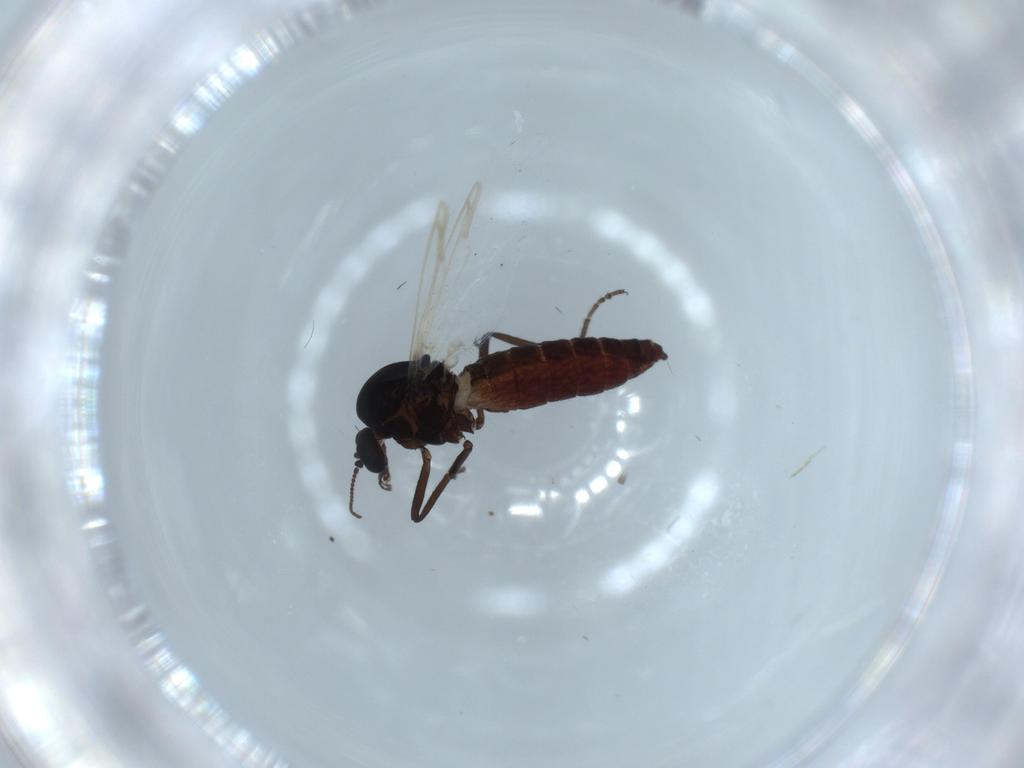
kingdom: Animalia
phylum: Arthropoda
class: Insecta
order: Diptera
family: Ceratopogonidae
